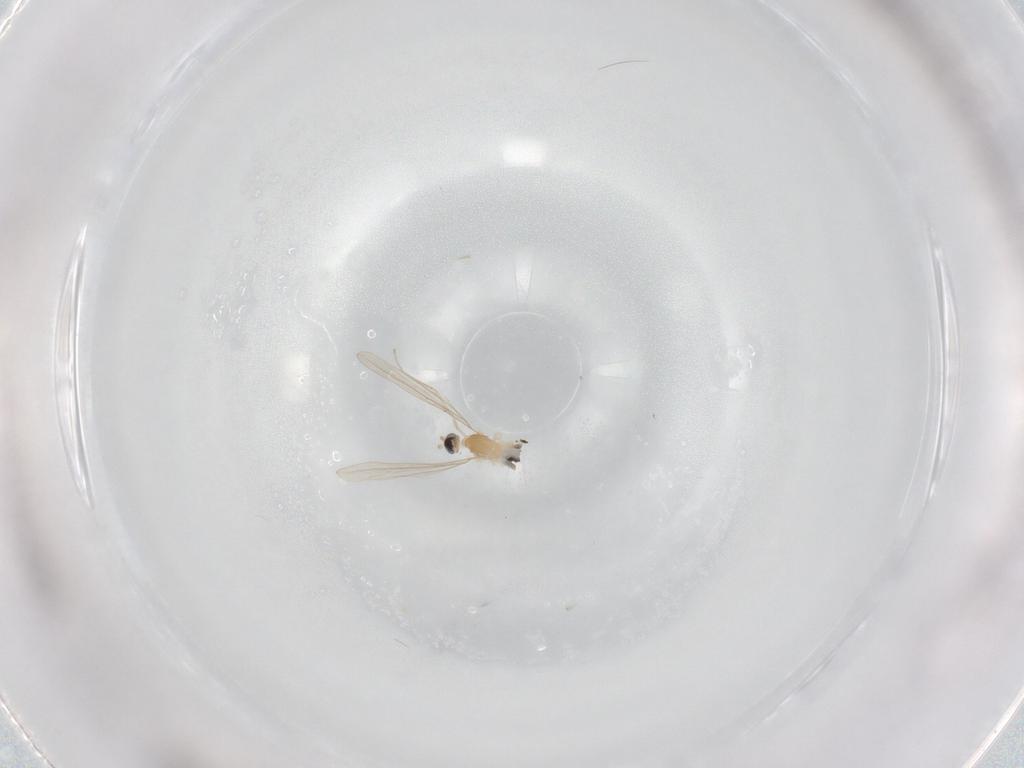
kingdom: Animalia
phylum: Arthropoda
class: Insecta
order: Diptera
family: Cecidomyiidae
